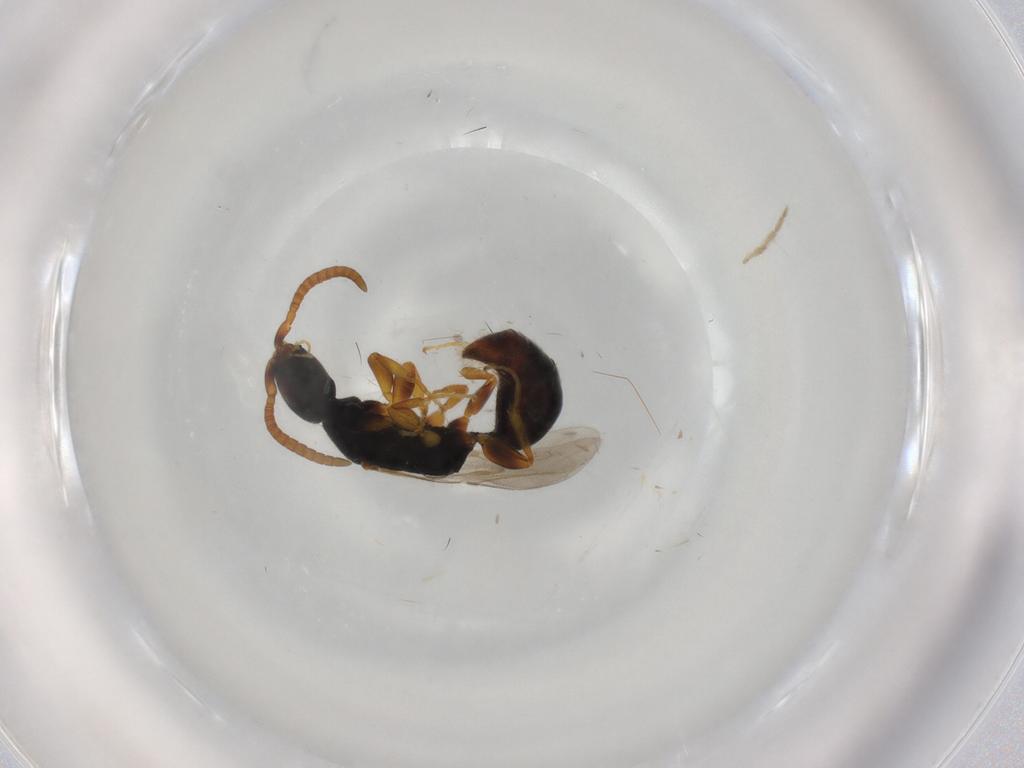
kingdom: Animalia
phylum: Arthropoda
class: Insecta
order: Hymenoptera
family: Bethylidae
